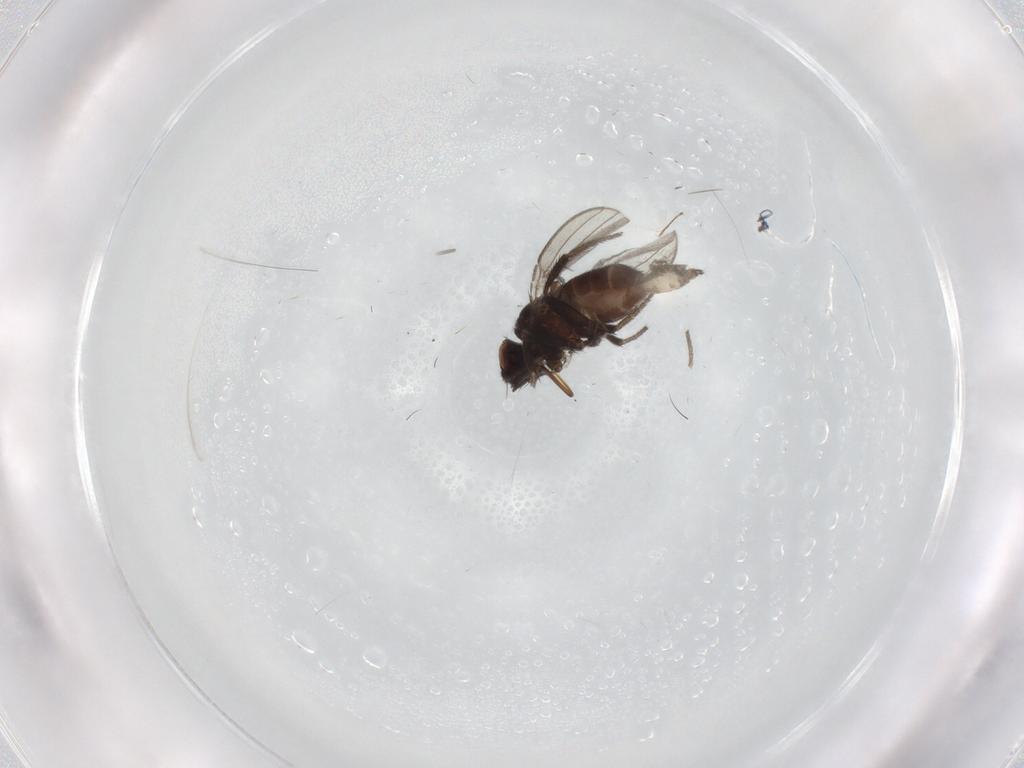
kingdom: Animalia
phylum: Arthropoda
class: Insecta
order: Diptera
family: Milichiidae
